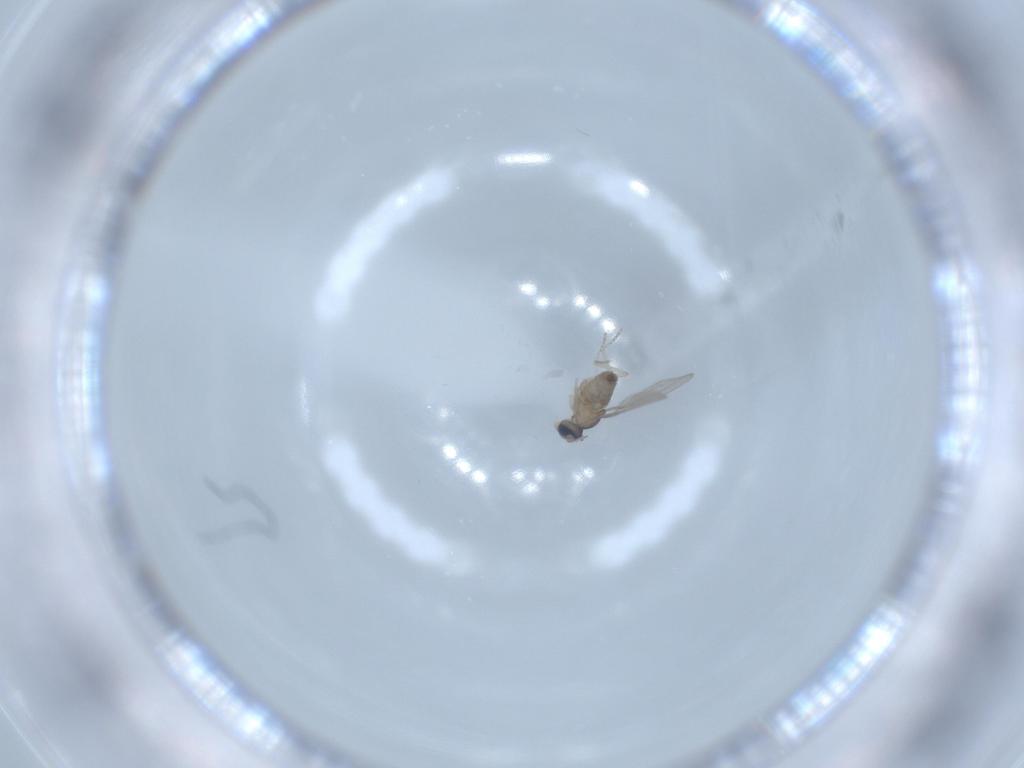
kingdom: Animalia
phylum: Arthropoda
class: Insecta
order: Diptera
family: Cecidomyiidae
